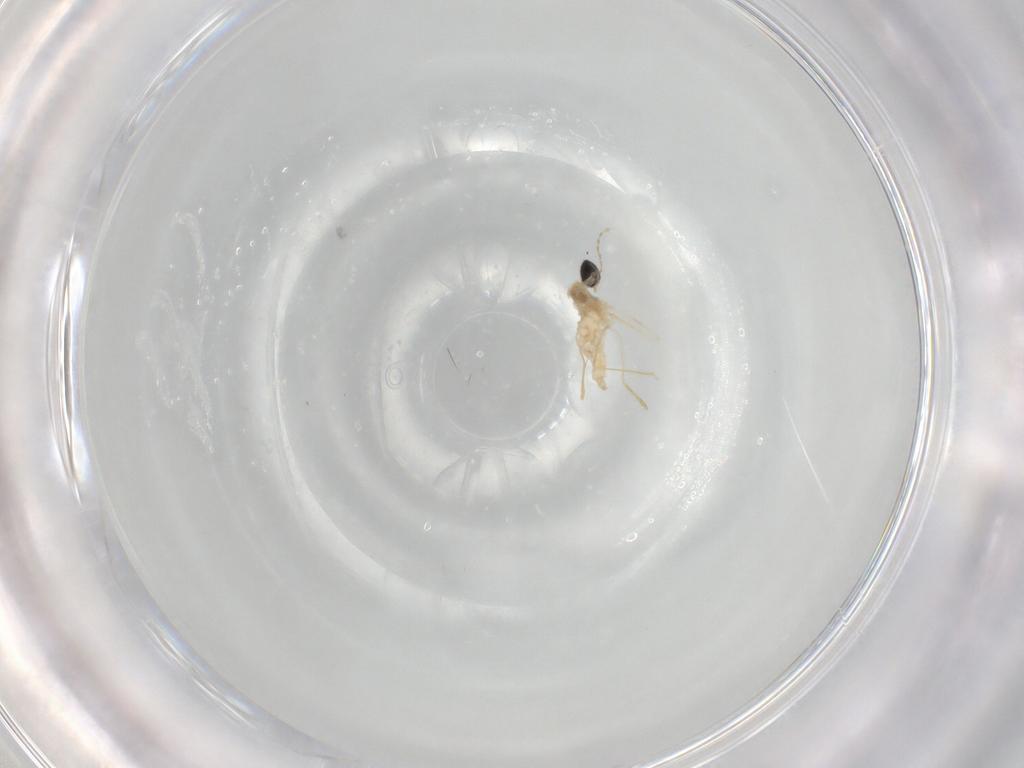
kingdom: Animalia
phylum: Arthropoda
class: Insecta
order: Diptera
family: Cecidomyiidae
